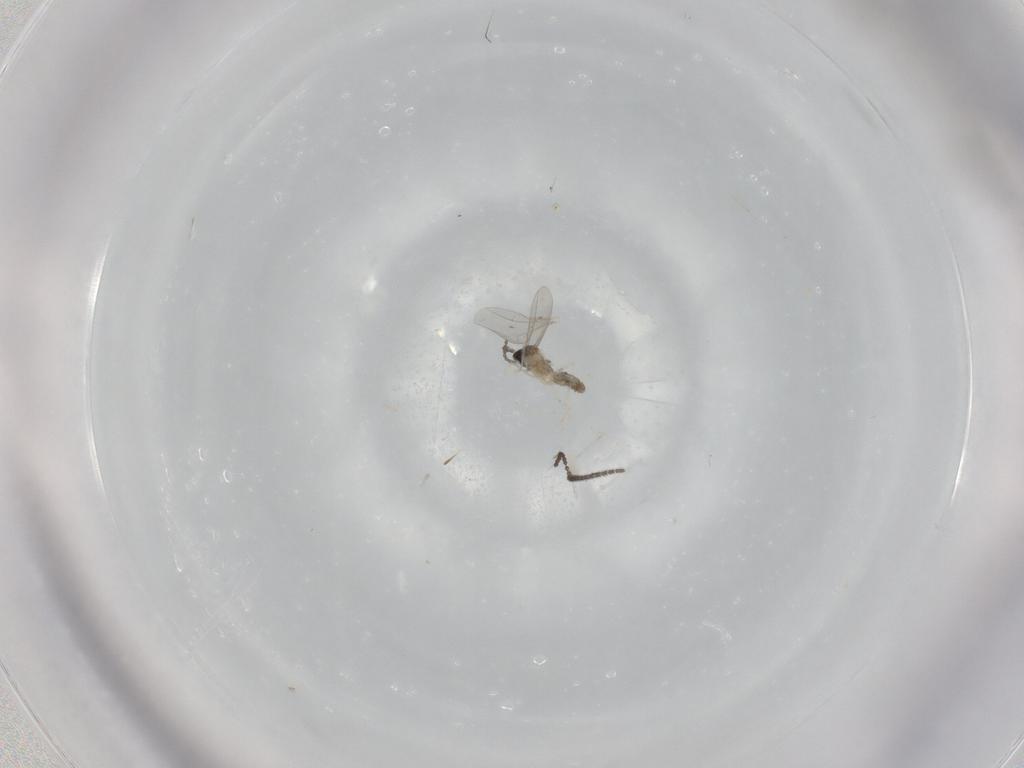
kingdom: Animalia
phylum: Arthropoda
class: Insecta
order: Diptera
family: Cecidomyiidae
